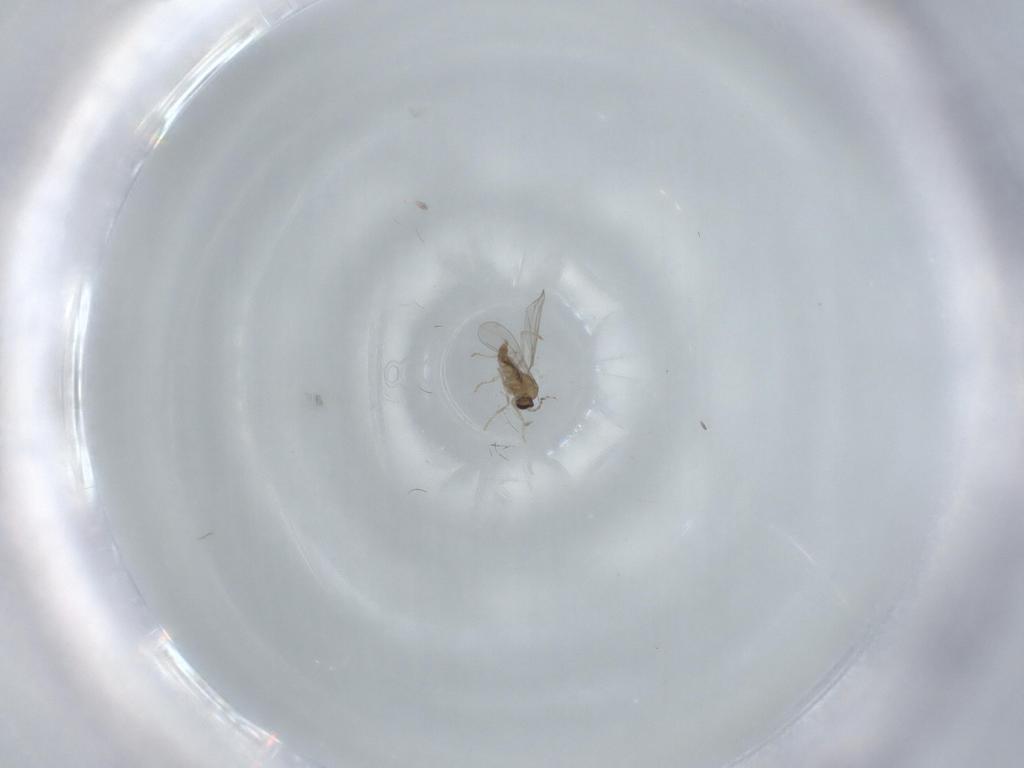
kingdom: Animalia
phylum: Arthropoda
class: Insecta
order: Diptera
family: Cecidomyiidae
